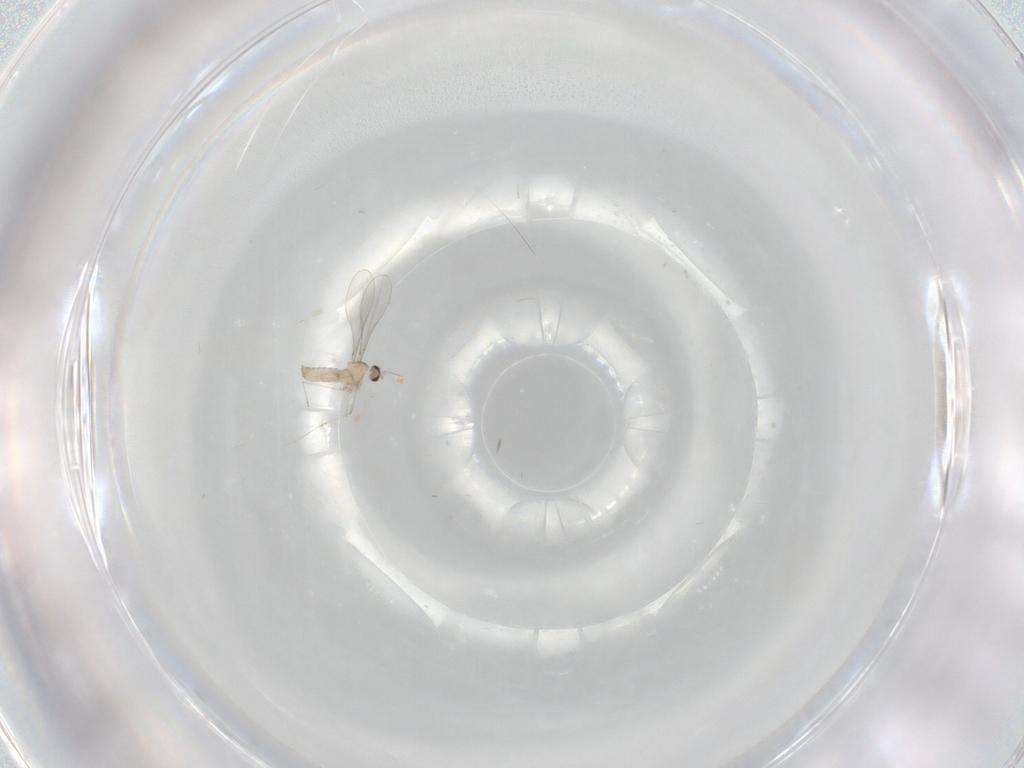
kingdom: Animalia
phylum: Arthropoda
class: Insecta
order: Diptera
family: Cecidomyiidae
